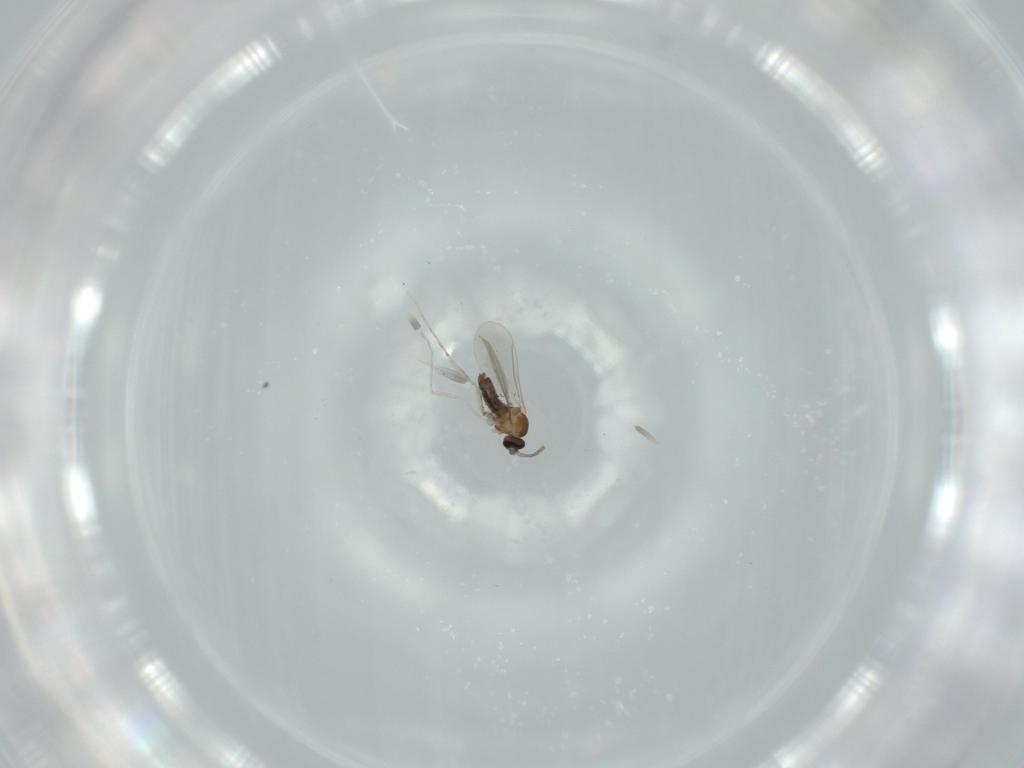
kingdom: Animalia
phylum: Arthropoda
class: Insecta
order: Diptera
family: Cecidomyiidae
